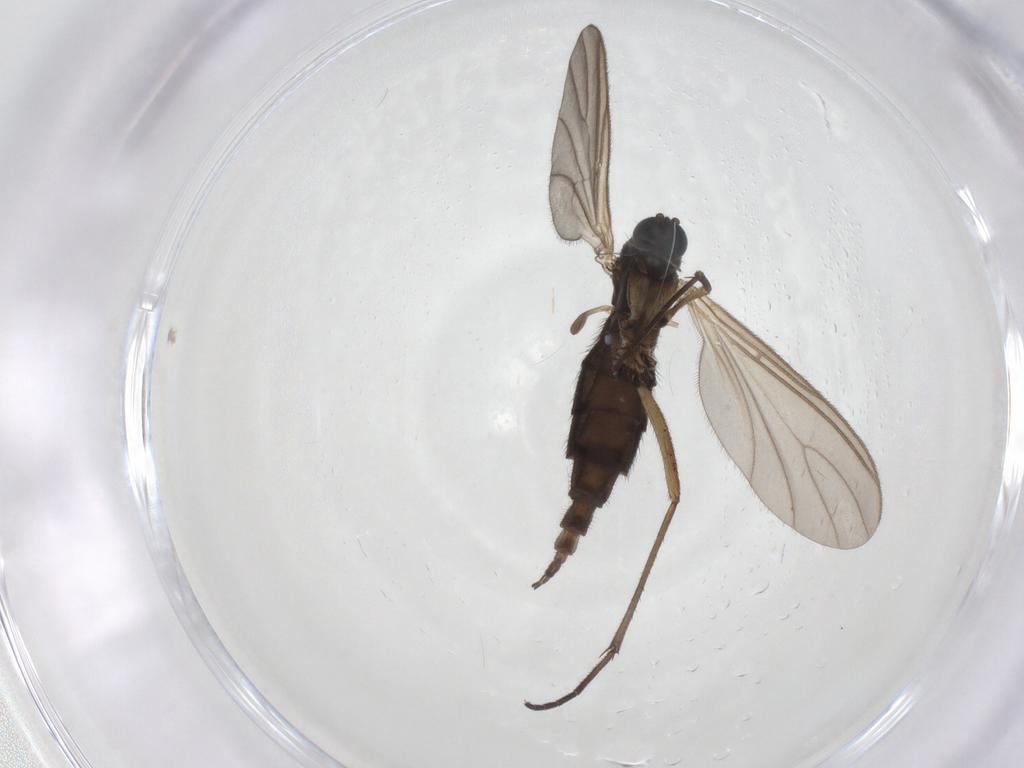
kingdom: Animalia
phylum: Arthropoda
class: Insecta
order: Diptera
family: Sciaridae
